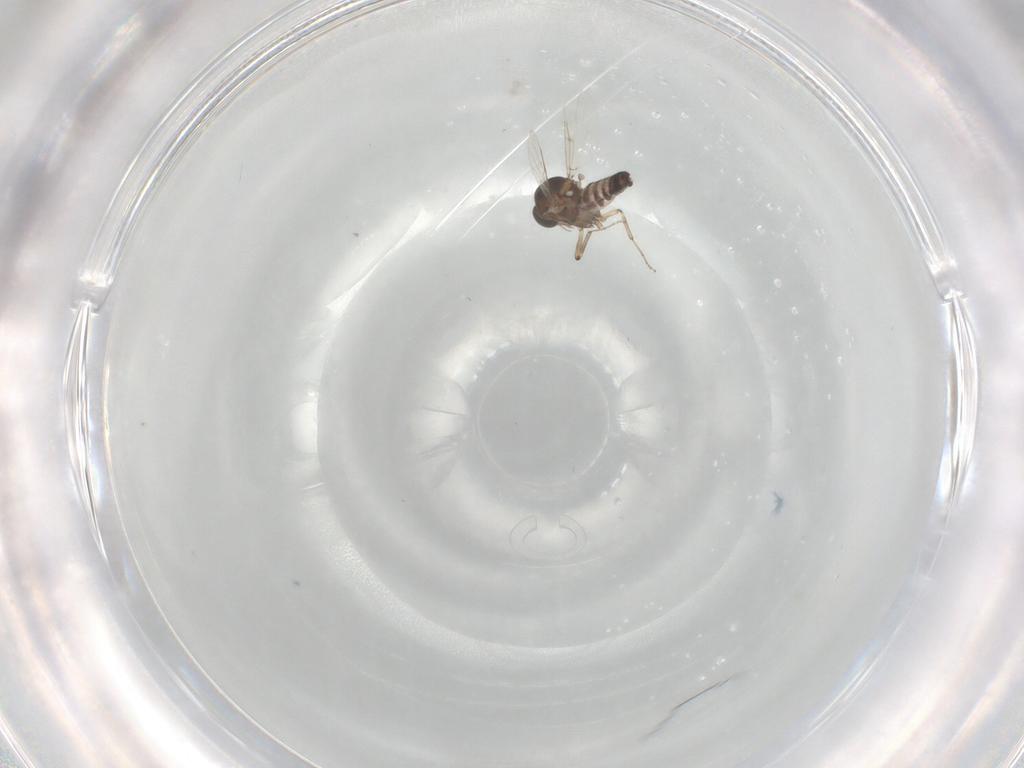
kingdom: Animalia
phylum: Arthropoda
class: Insecta
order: Diptera
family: Ceratopogonidae
